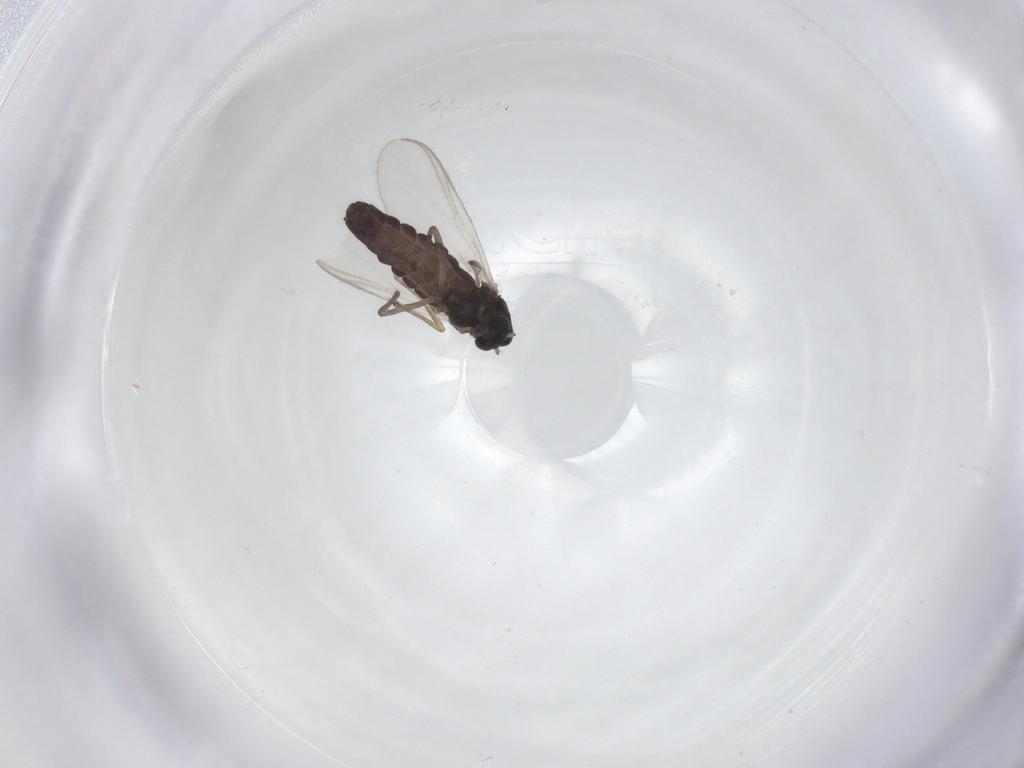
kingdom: Animalia
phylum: Arthropoda
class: Insecta
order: Diptera
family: Chironomidae
